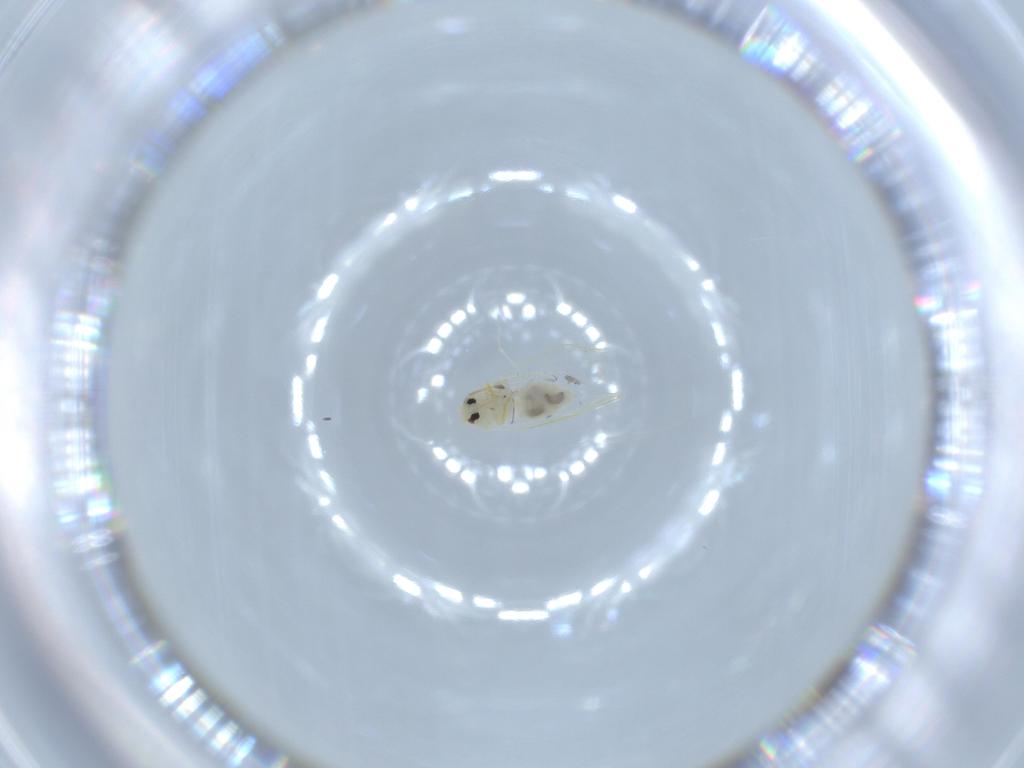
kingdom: Animalia
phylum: Arthropoda
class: Insecta
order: Hemiptera
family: Aleyrodidae
